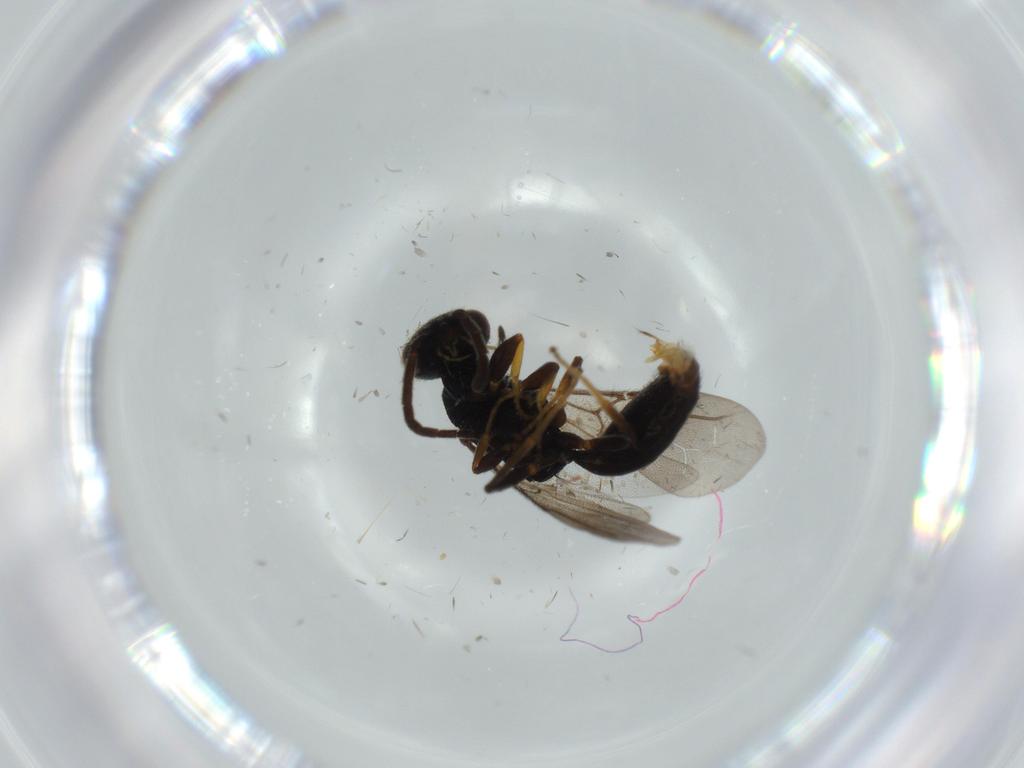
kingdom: Animalia
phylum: Arthropoda
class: Insecta
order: Hymenoptera
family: Bethylidae
